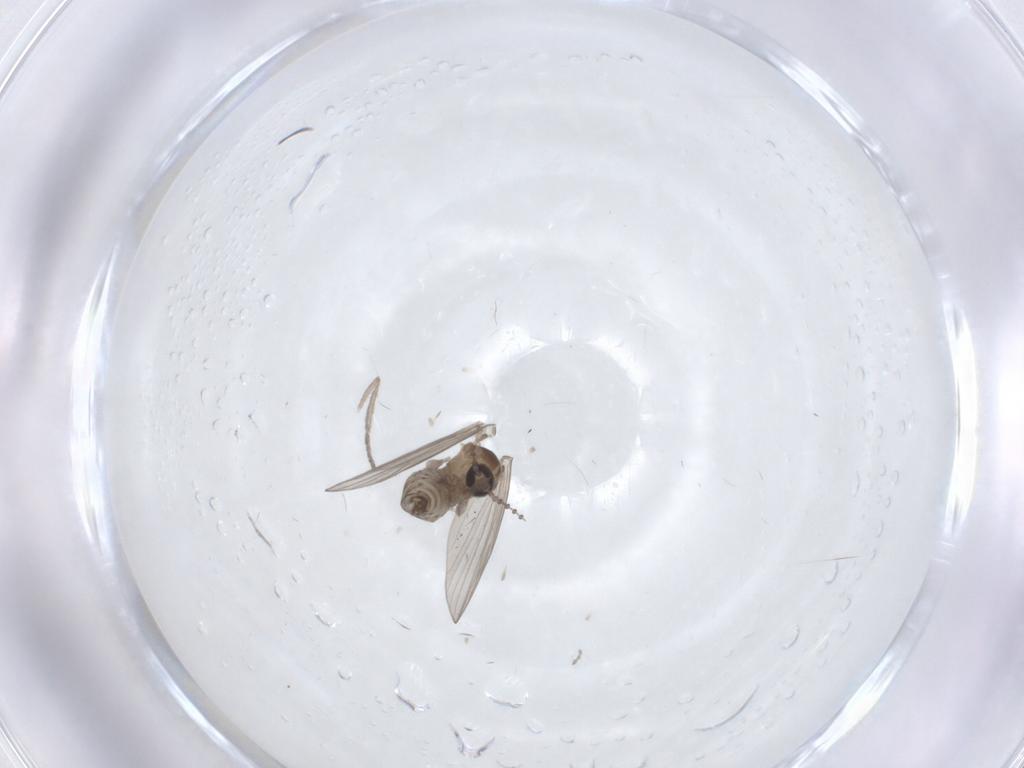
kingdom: Animalia
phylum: Arthropoda
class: Insecta
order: Diptera
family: Psychodidae
